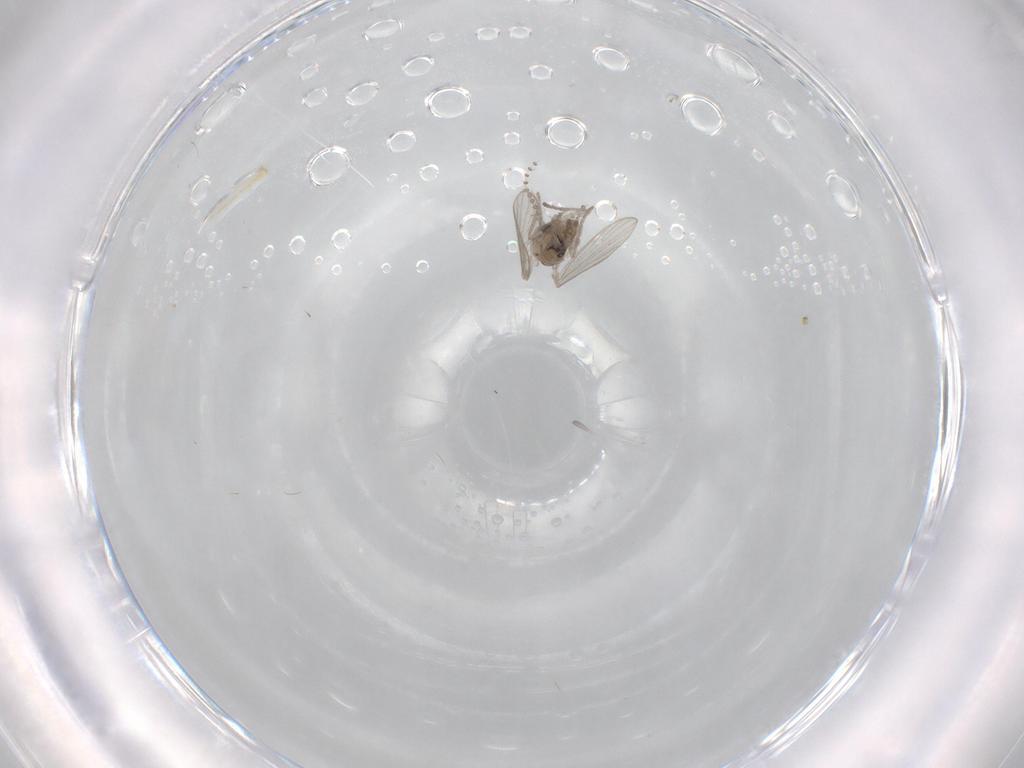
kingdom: Animalia
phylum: Arthropoda
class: Insecta
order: Diptera
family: Psychodidae
